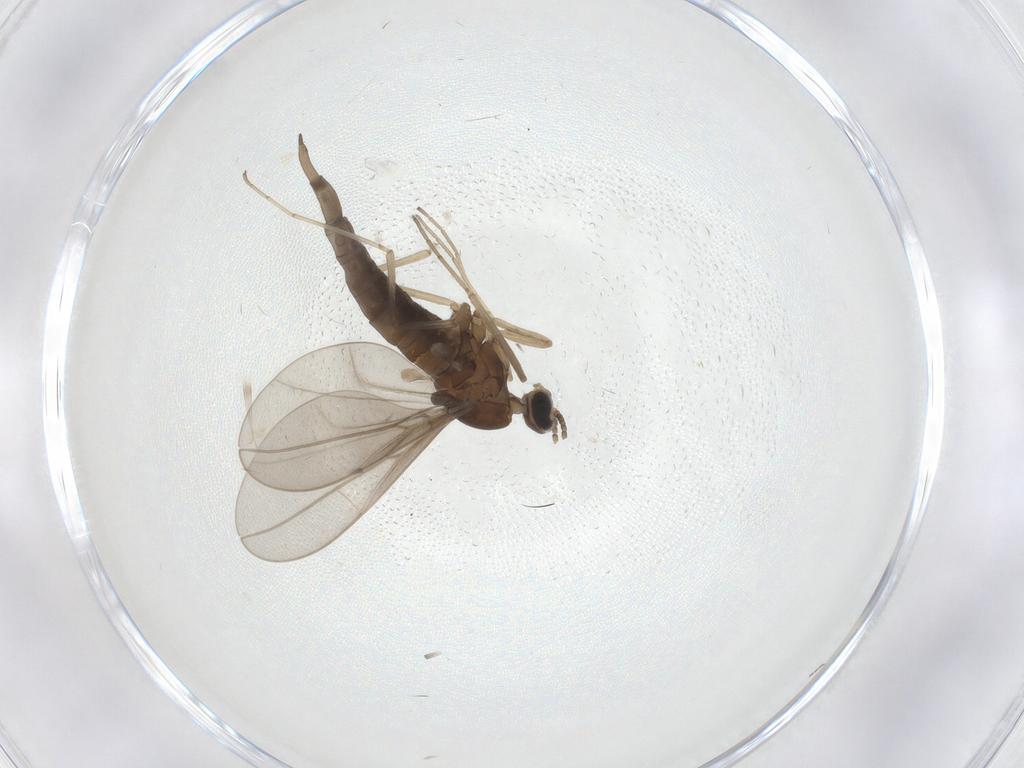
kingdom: Animalia
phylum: Arthropoda
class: Insecta
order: Diptera
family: Cecidomyiidae
